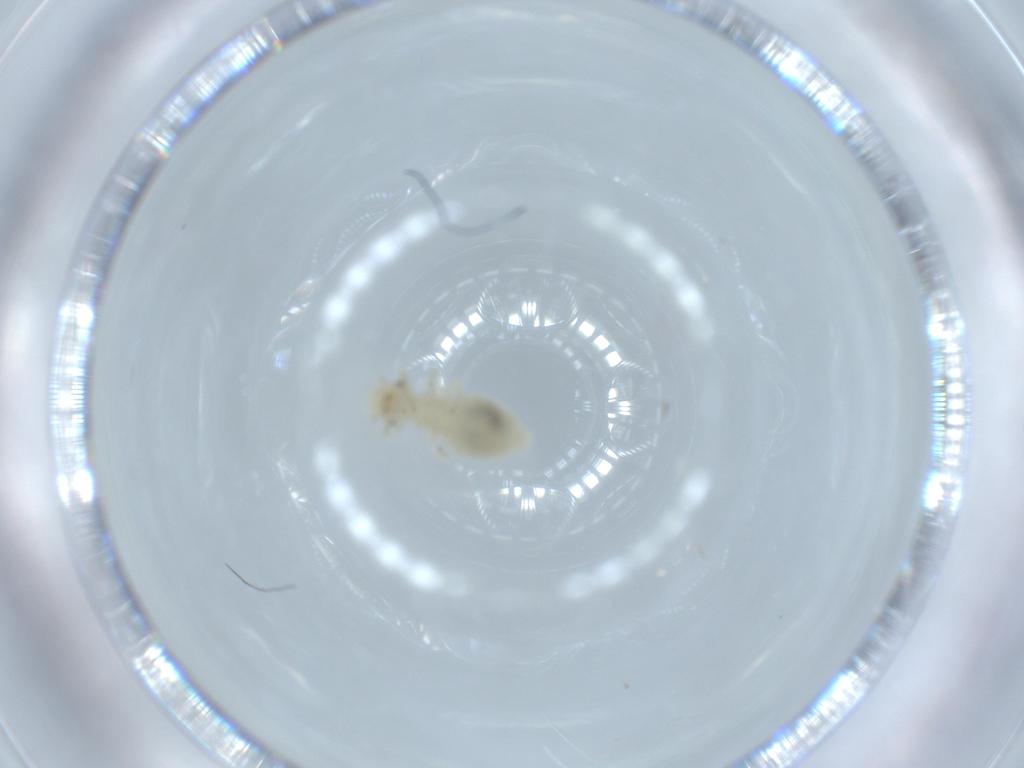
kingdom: Animalia
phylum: Arthropoda
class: Insecta
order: Psocodea
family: Caeciliusidae
